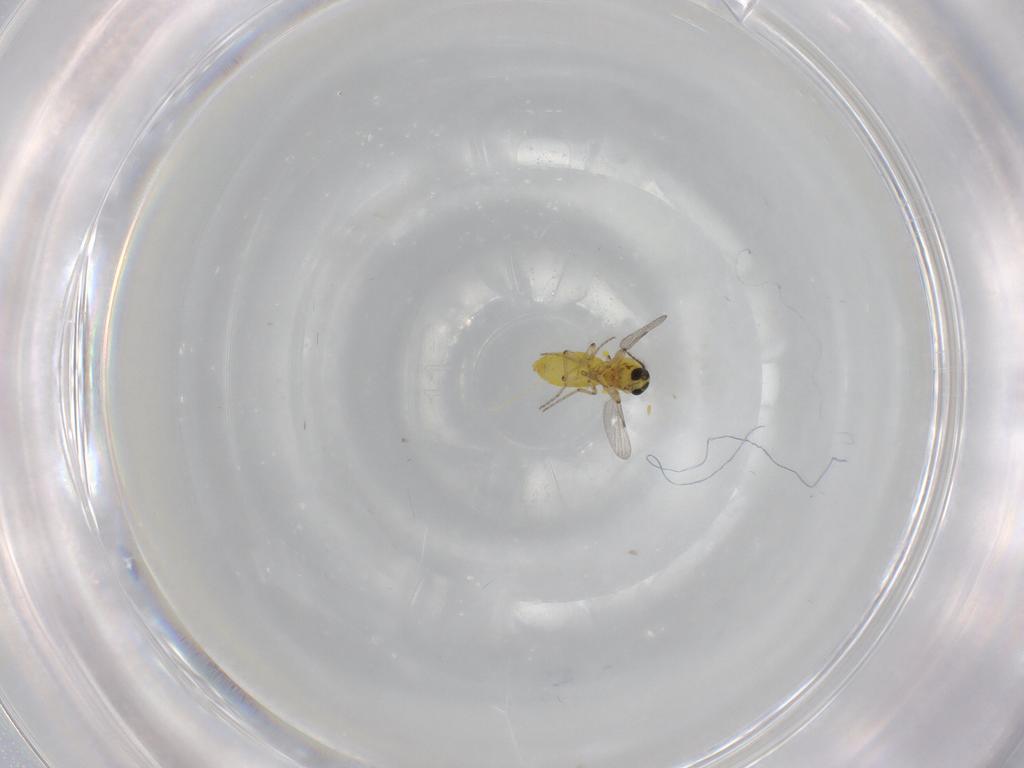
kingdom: Animalia
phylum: Arthropoda
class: Insecta
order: Diptera
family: Ceratopogonidae
